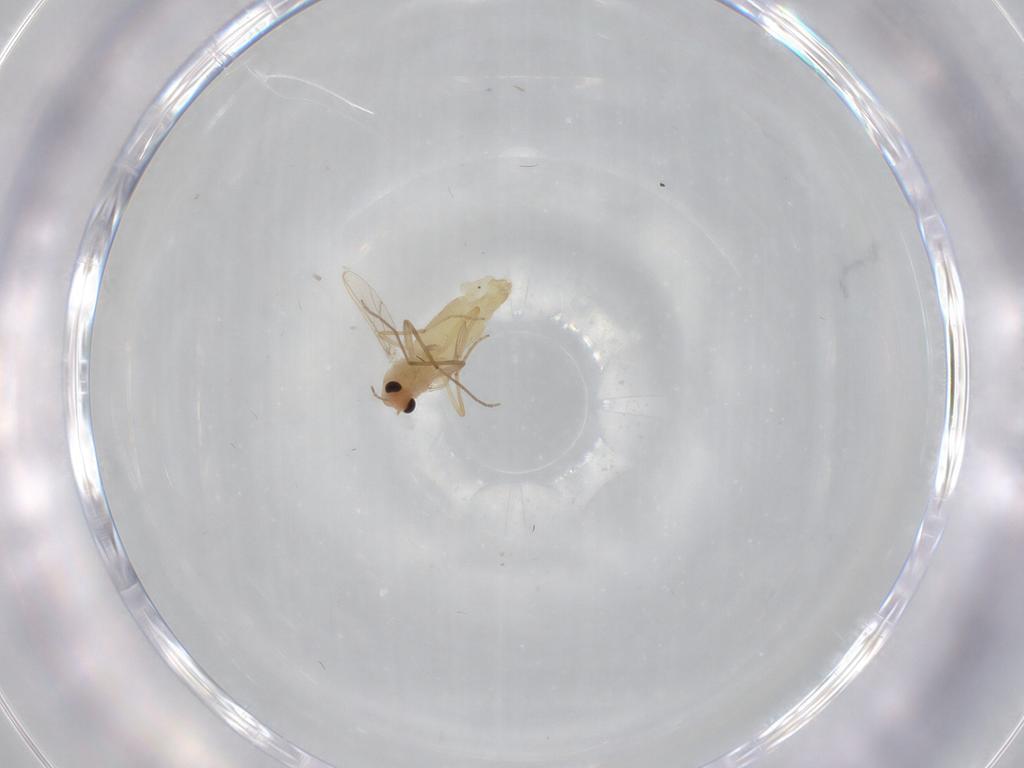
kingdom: Animalia
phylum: Arthropoda
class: Insecta
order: Diptera
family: Chironomidae
